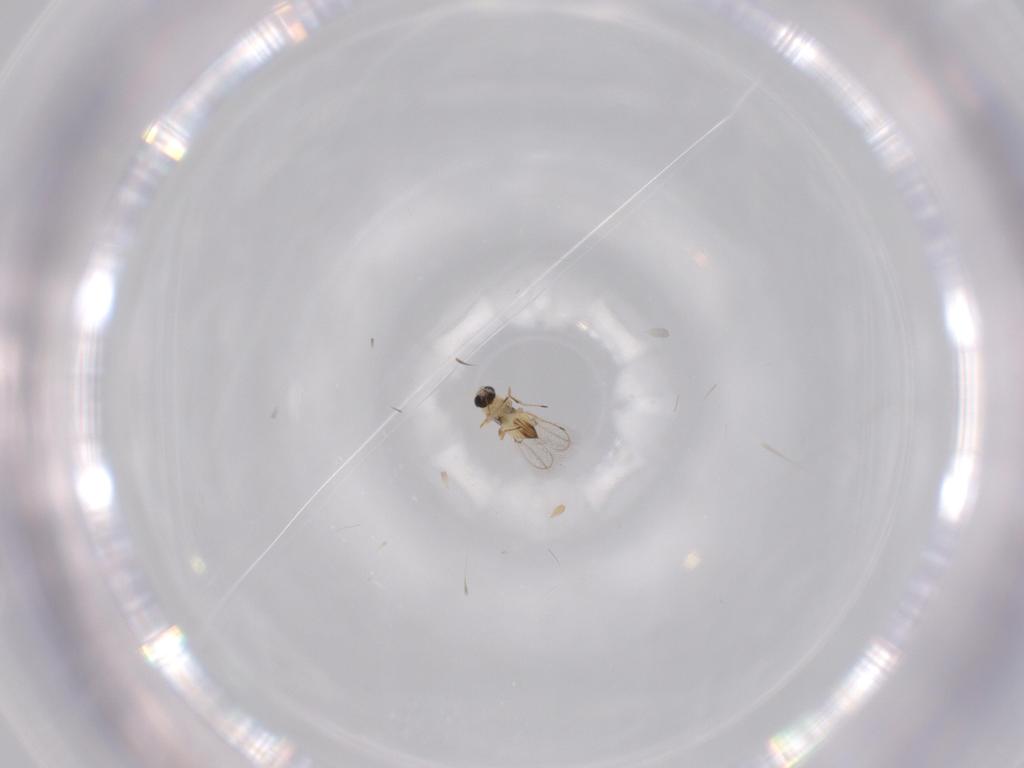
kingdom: Animalia
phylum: Arthropoda
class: Insecta
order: Hymenoptera
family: Trichogrammatidae
